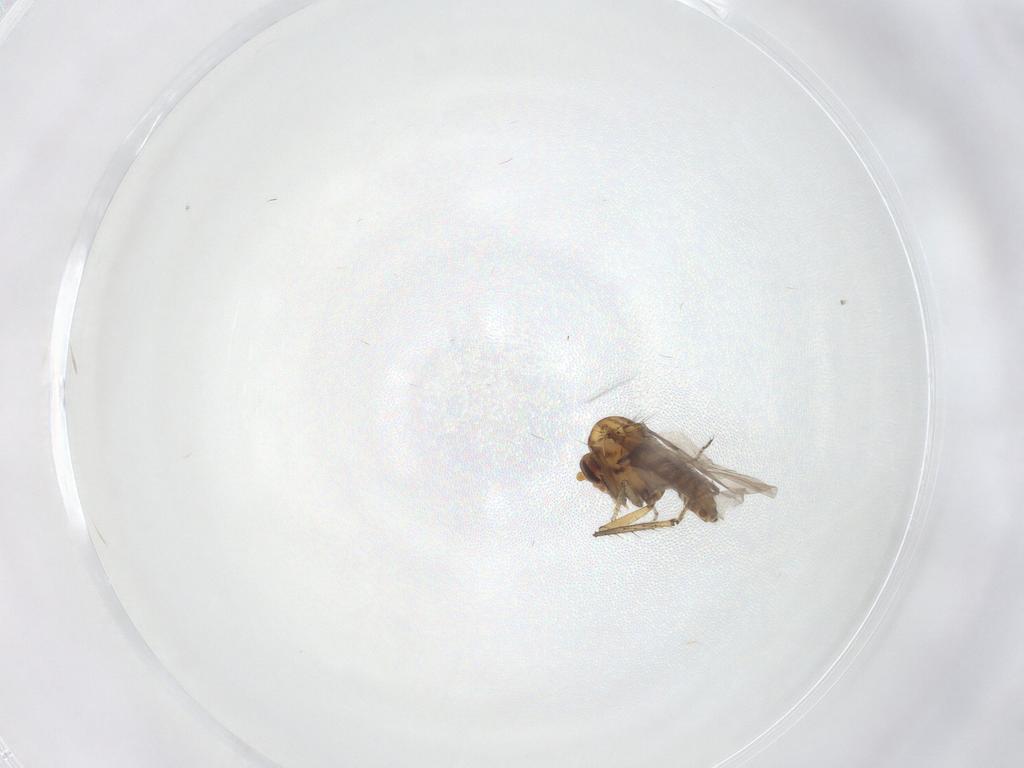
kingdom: Animalia
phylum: Arthropoda
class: Insecta
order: Diptera
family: Ceratopogonidae
